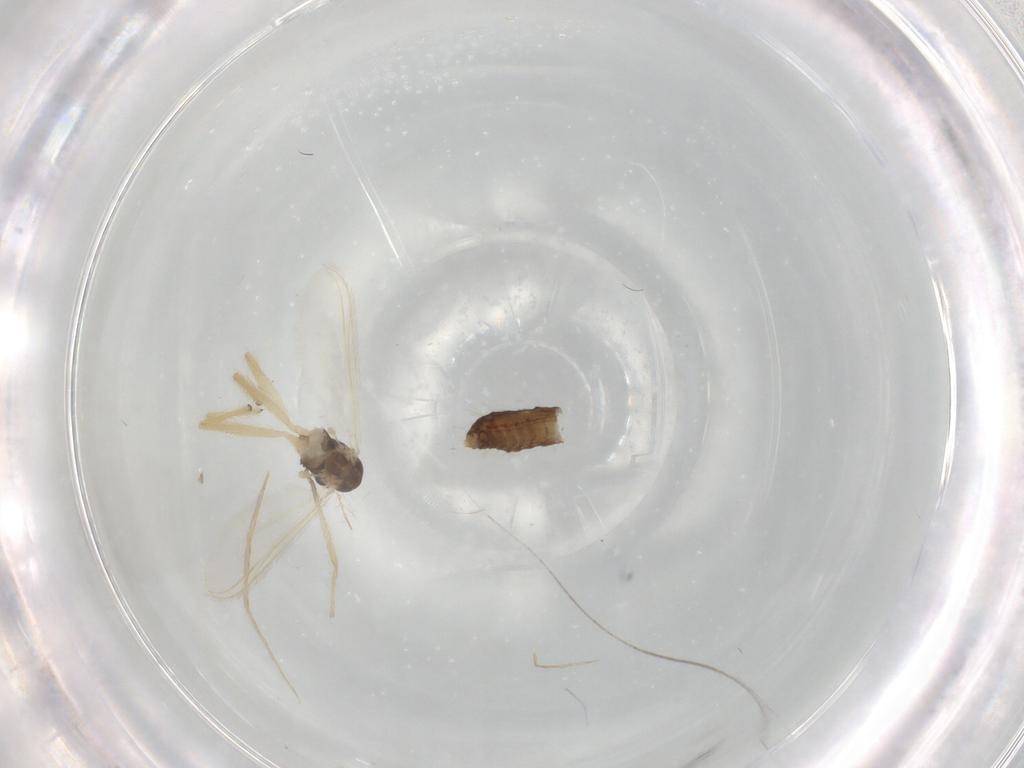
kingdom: Animalia
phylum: Arthropoda
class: Insecta
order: Diptera
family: Chironomidae
